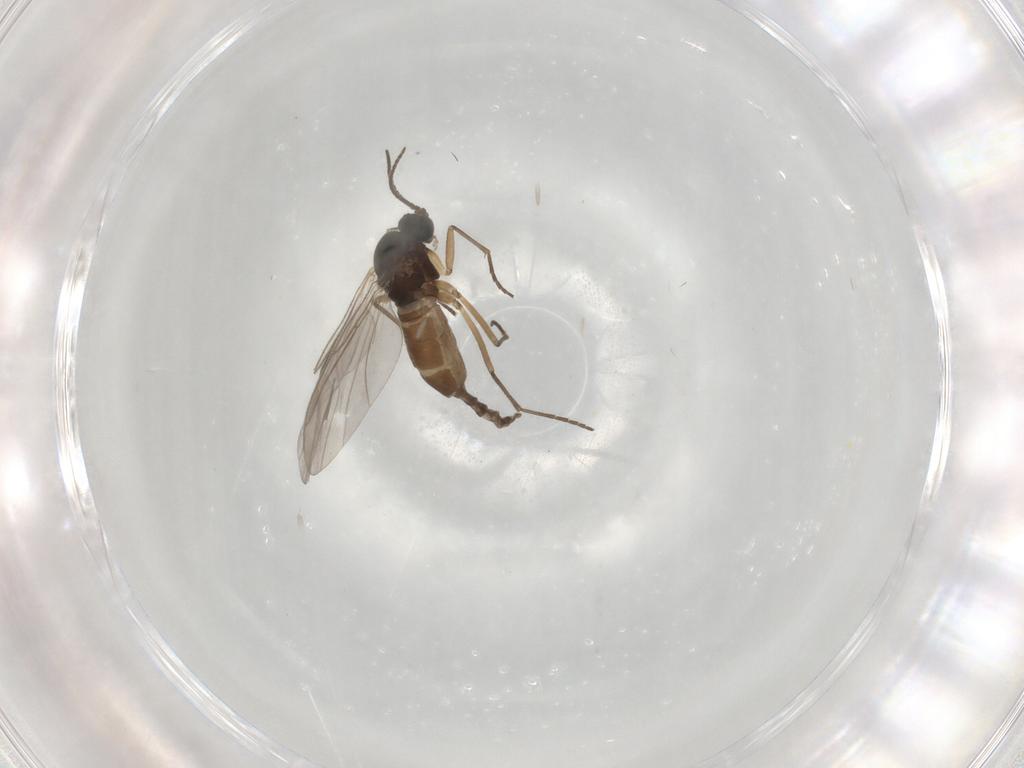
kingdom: Animalia
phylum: Arthropoda
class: Insecta
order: Diptera
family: Sciaridae
